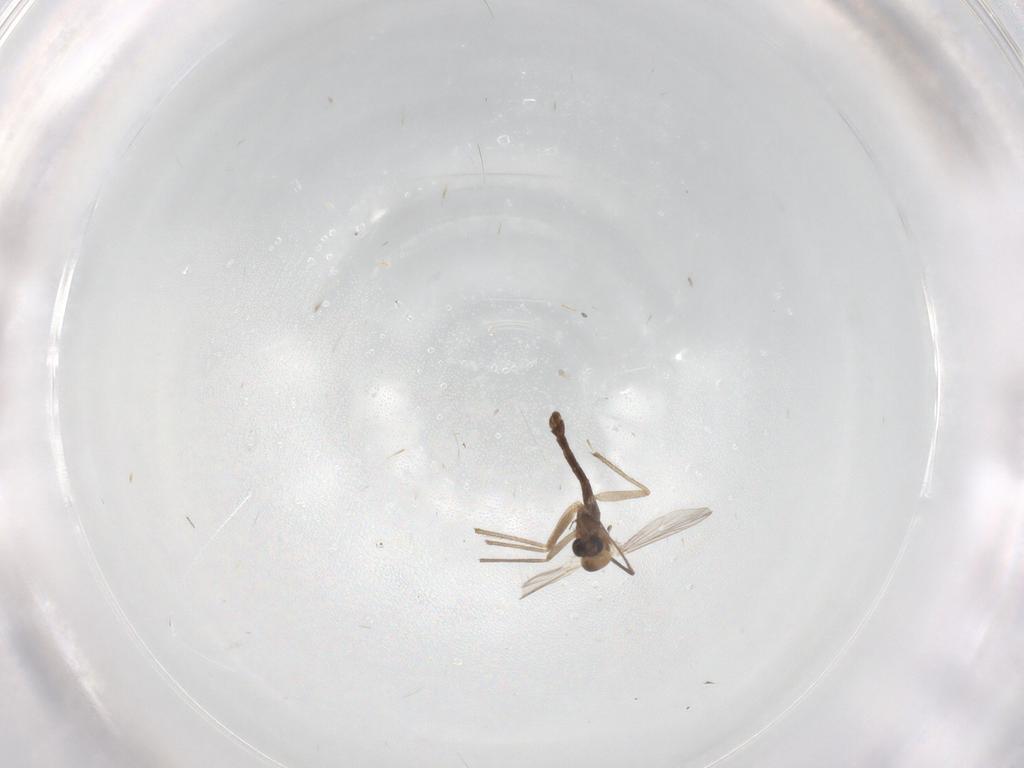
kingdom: Animalia
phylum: Arthropoda
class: Insecta
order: Diptera
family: Chironomidae
